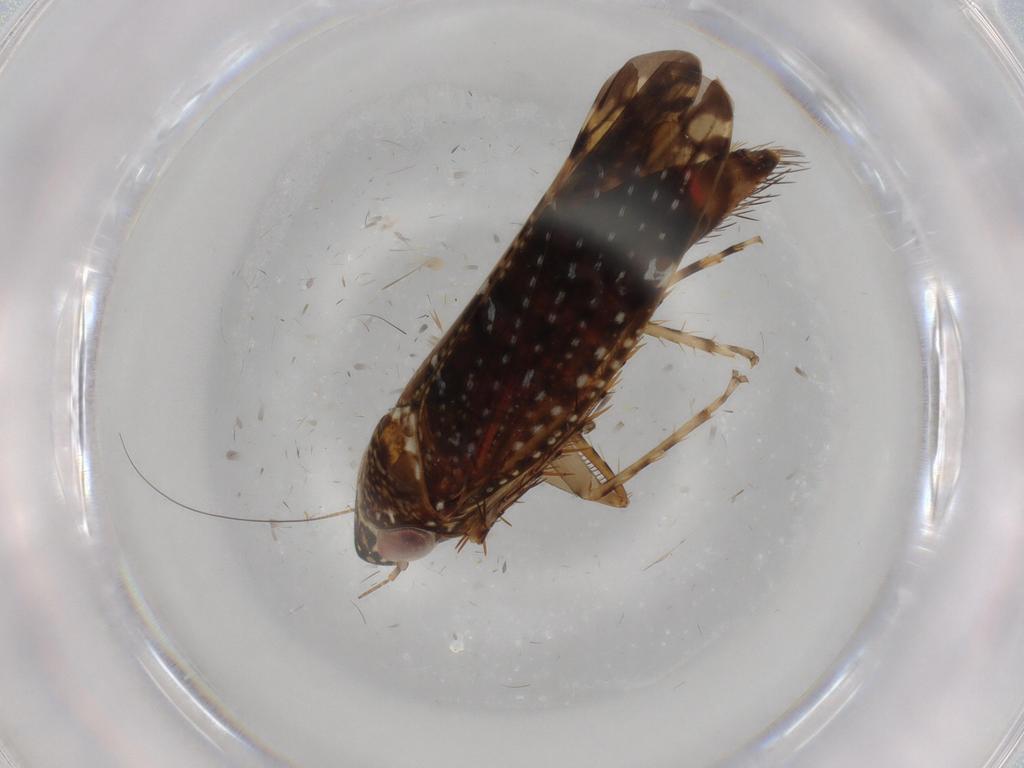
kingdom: Animalia
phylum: Arthropoda
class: Insecta
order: Hemiptera
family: Cicadellidae
